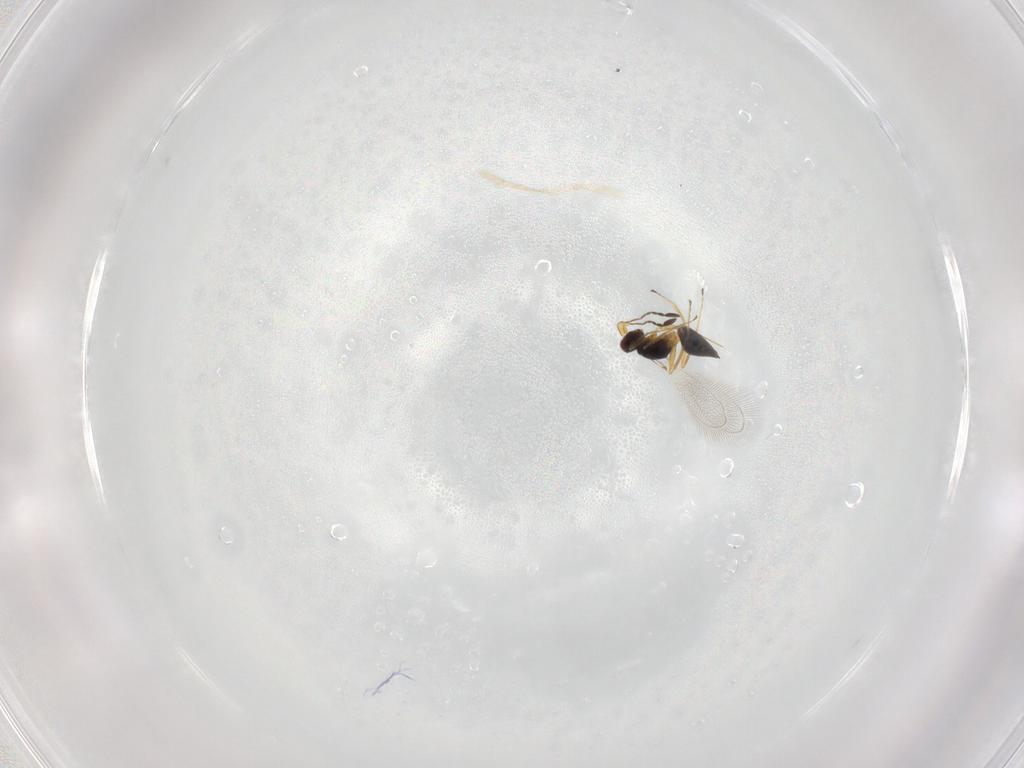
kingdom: Animalia
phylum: Arthropoda
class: Insecta
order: Hymenoptera
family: Mymaridae
